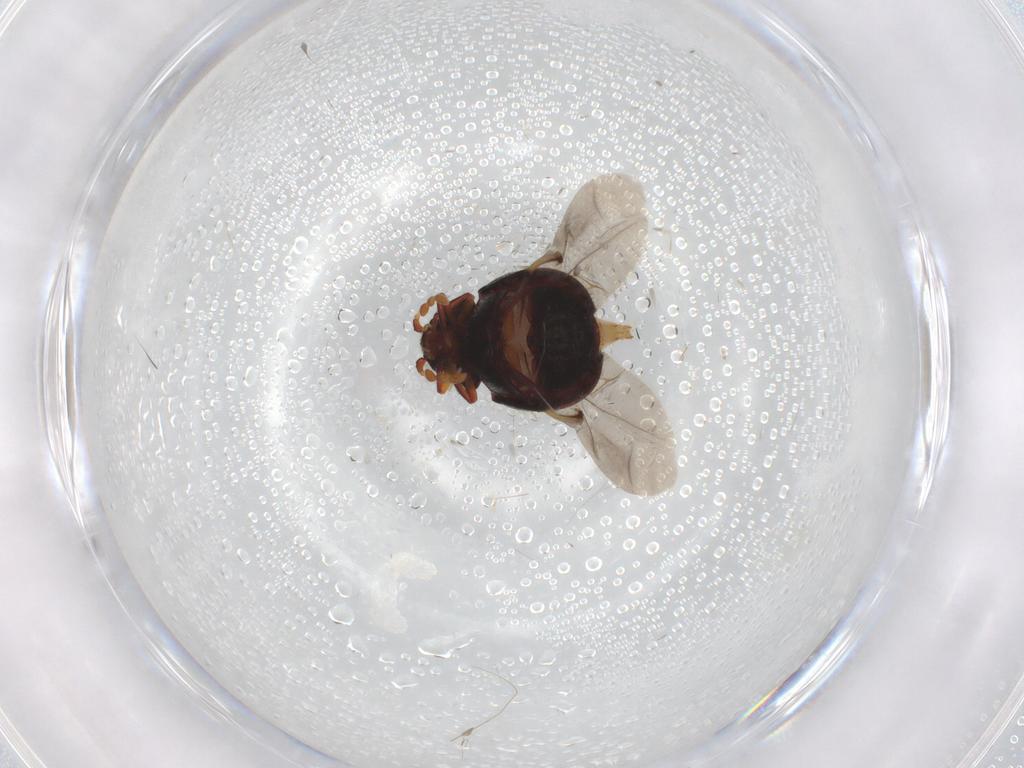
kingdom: Animalia
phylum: Arthropoda
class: Insecta
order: Coleoptera
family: Ptinidae
